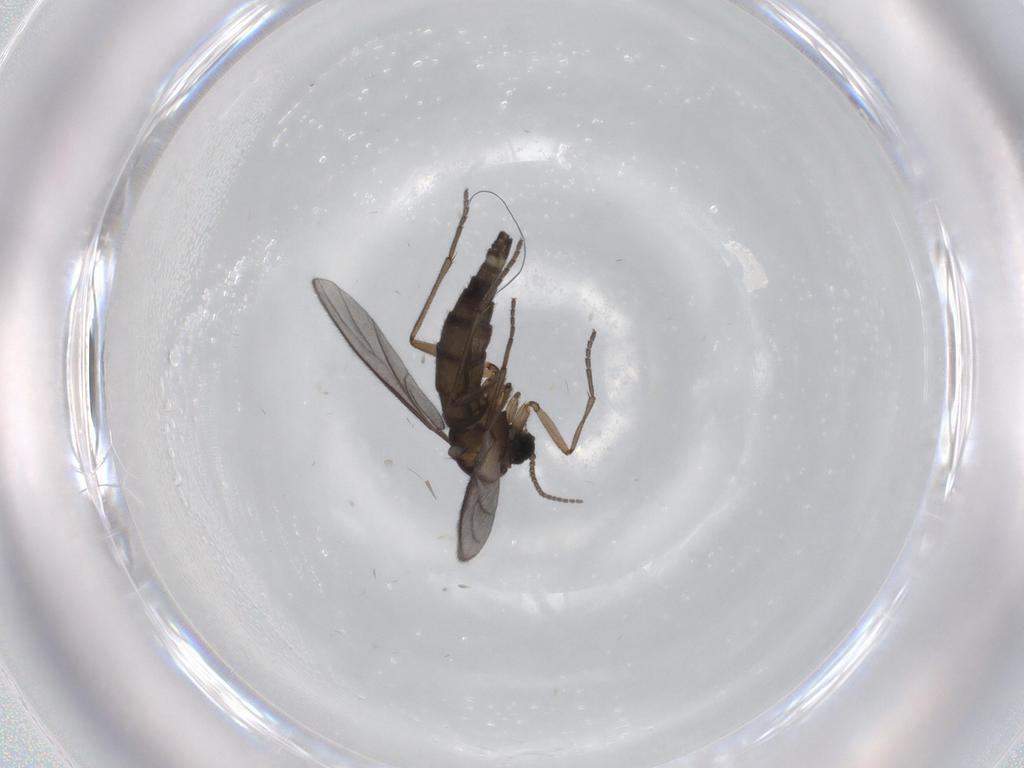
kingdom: Animalia
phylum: Arthropoda
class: Insecta
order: Diptera
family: Sciaridae
